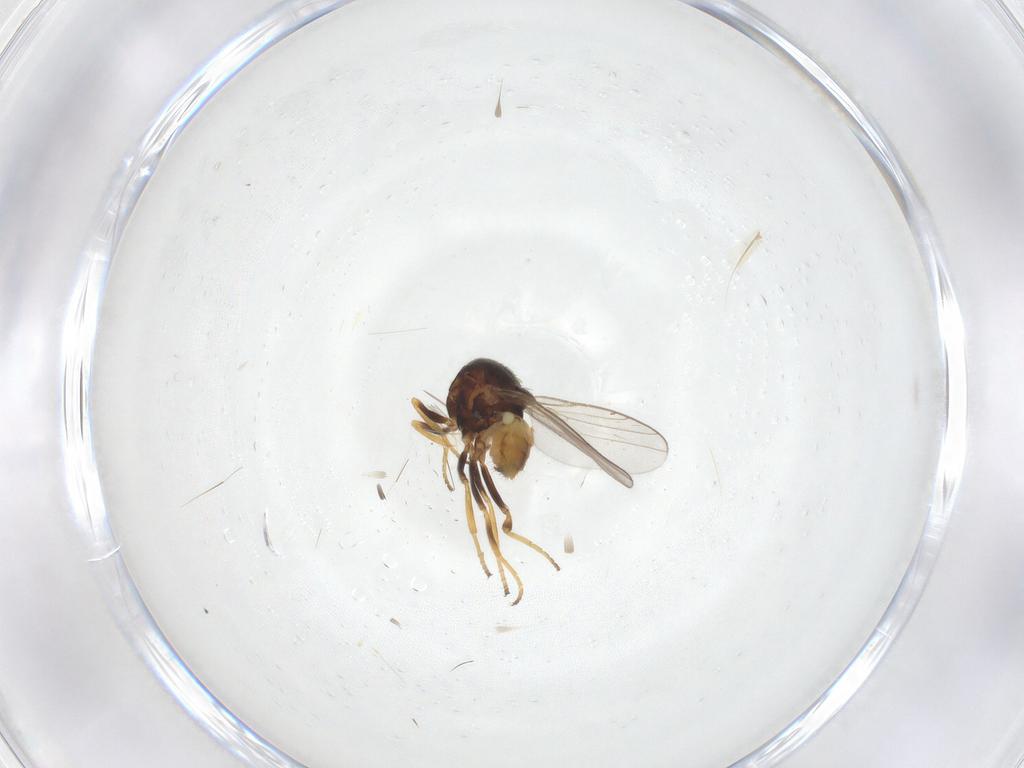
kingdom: Animalia
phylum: Arthropoda
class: Insecta
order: Diptera
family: Chloropidae
